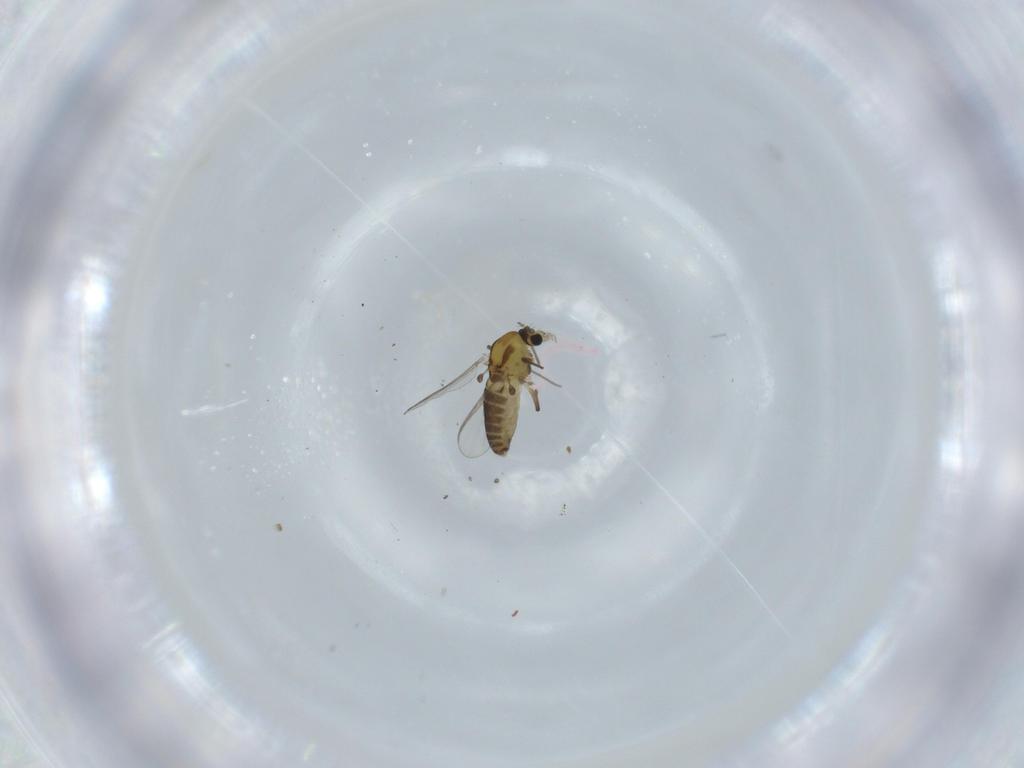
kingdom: Animalia
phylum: Arthropoda
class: Insecta
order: Diptera
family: Chironomidae
